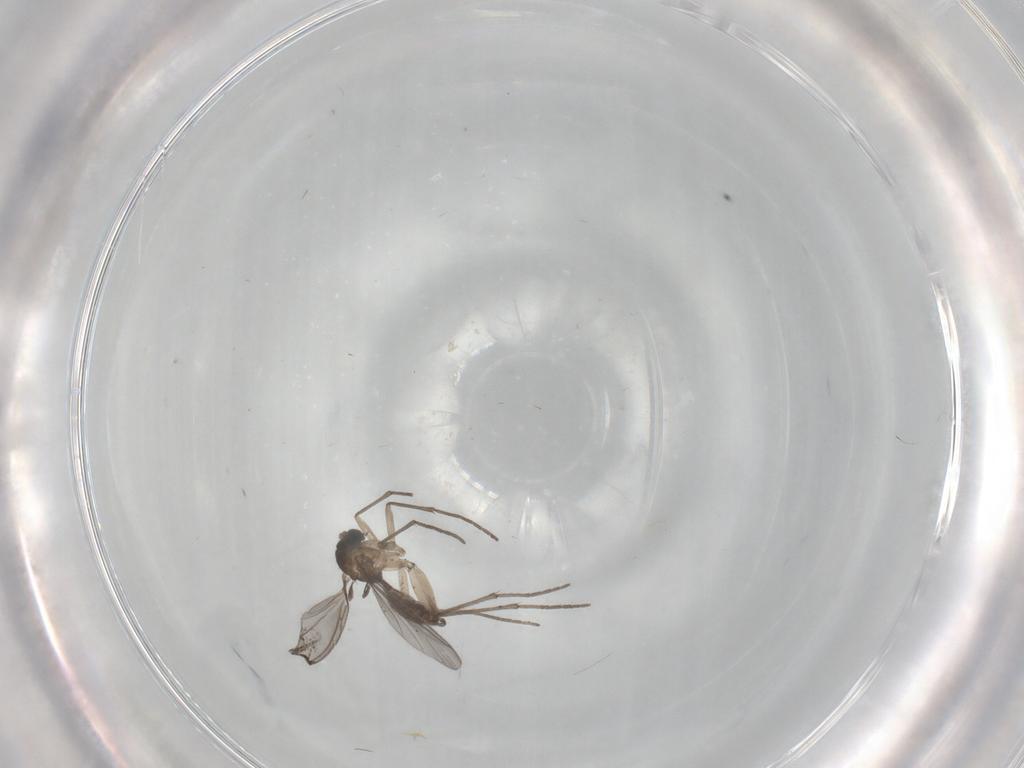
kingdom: Animalia
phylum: Arthropoda
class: Insecta
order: Diptera
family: Sciaridae
